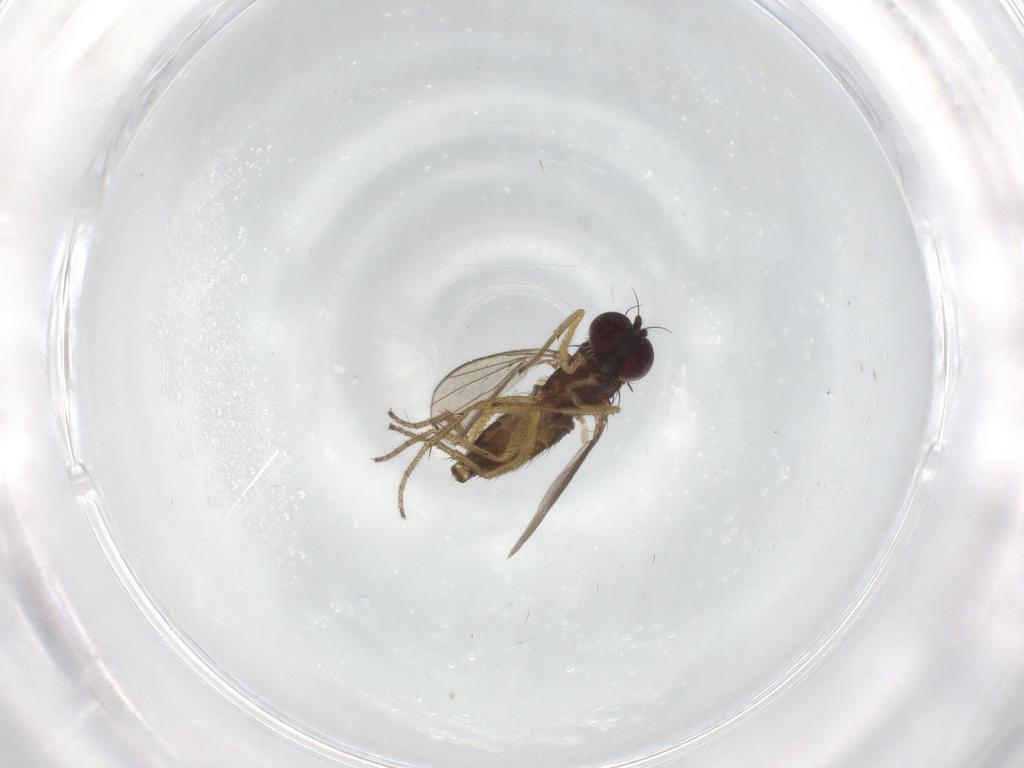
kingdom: Animalia
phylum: Arthropoda
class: Insecta
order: Diptera
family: Dolichopodidae
